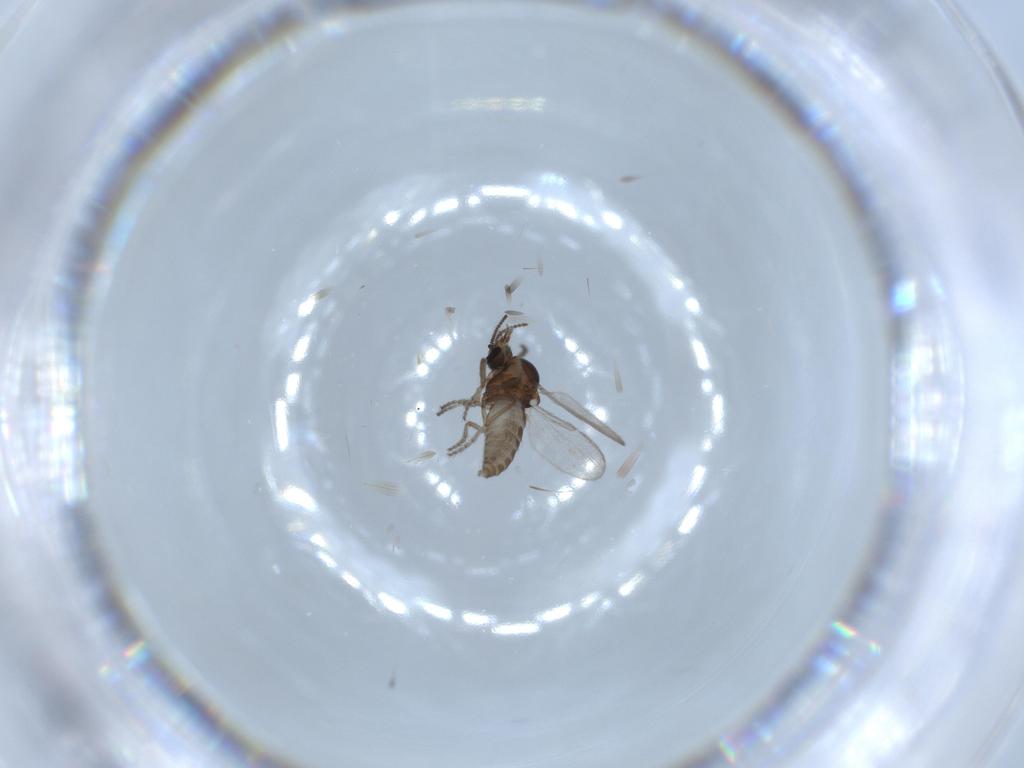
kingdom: Animalia
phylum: Arthropoda
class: Insecta
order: Diptera
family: Ceratopogonidae
